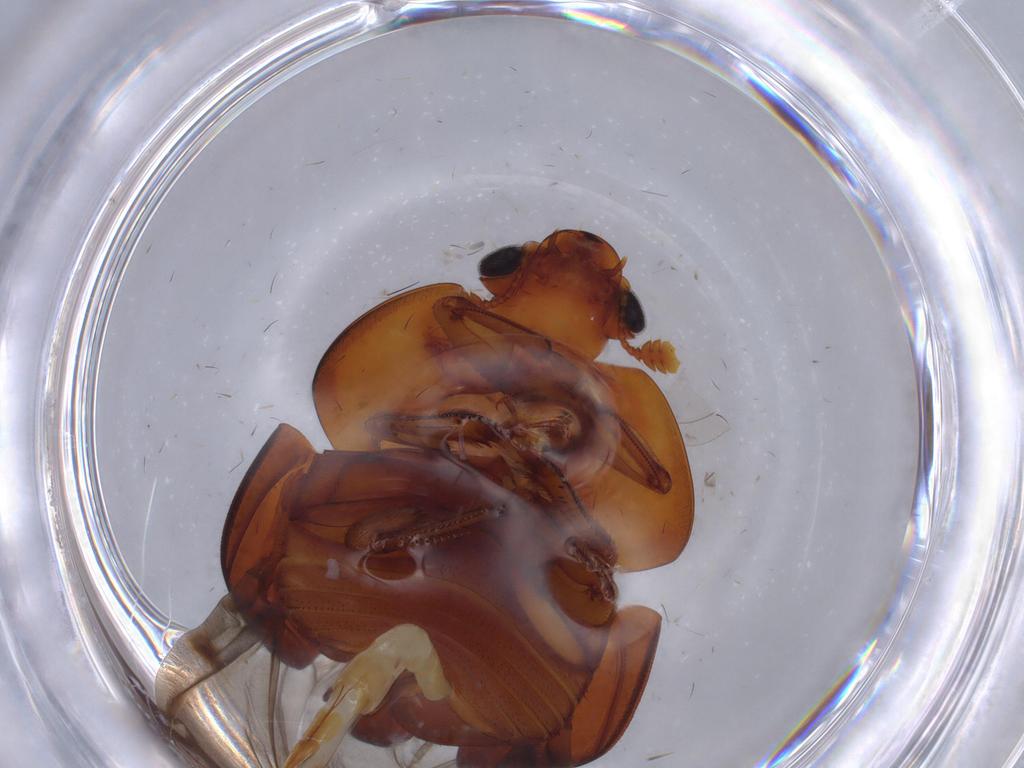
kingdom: Animalia
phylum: Arthropoda
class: Insecta
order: Coleoptera
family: Nitidulidae
